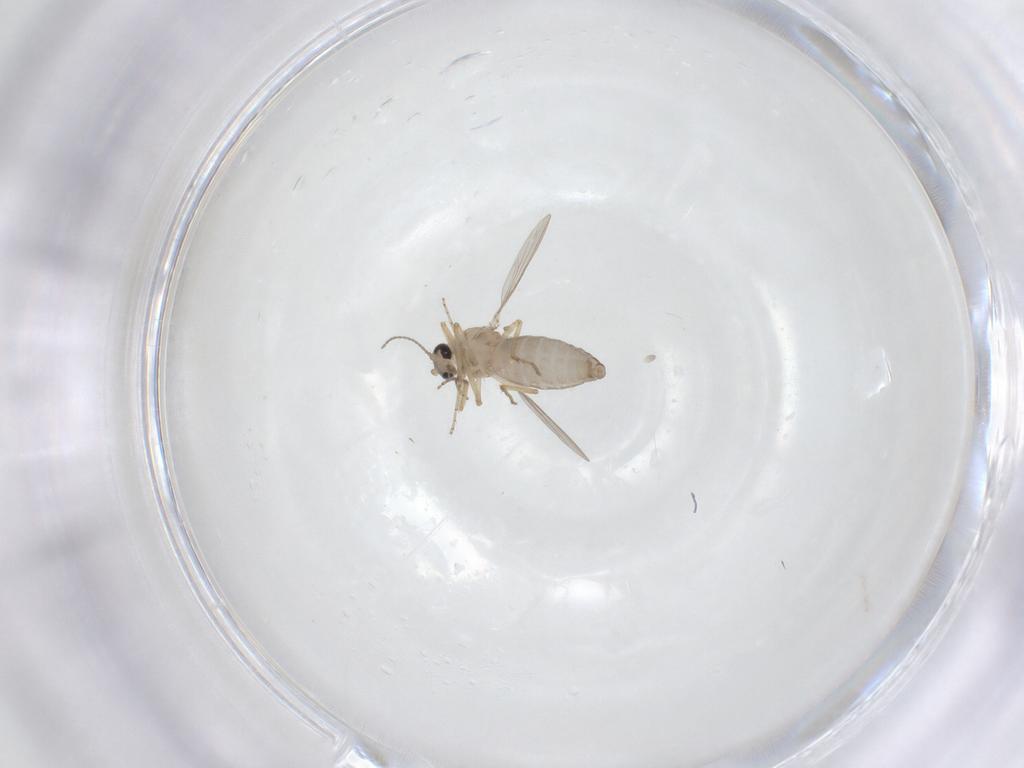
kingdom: Animalia
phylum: Arthropoda
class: Insecta
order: Diptera
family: Ceratopogonidae
